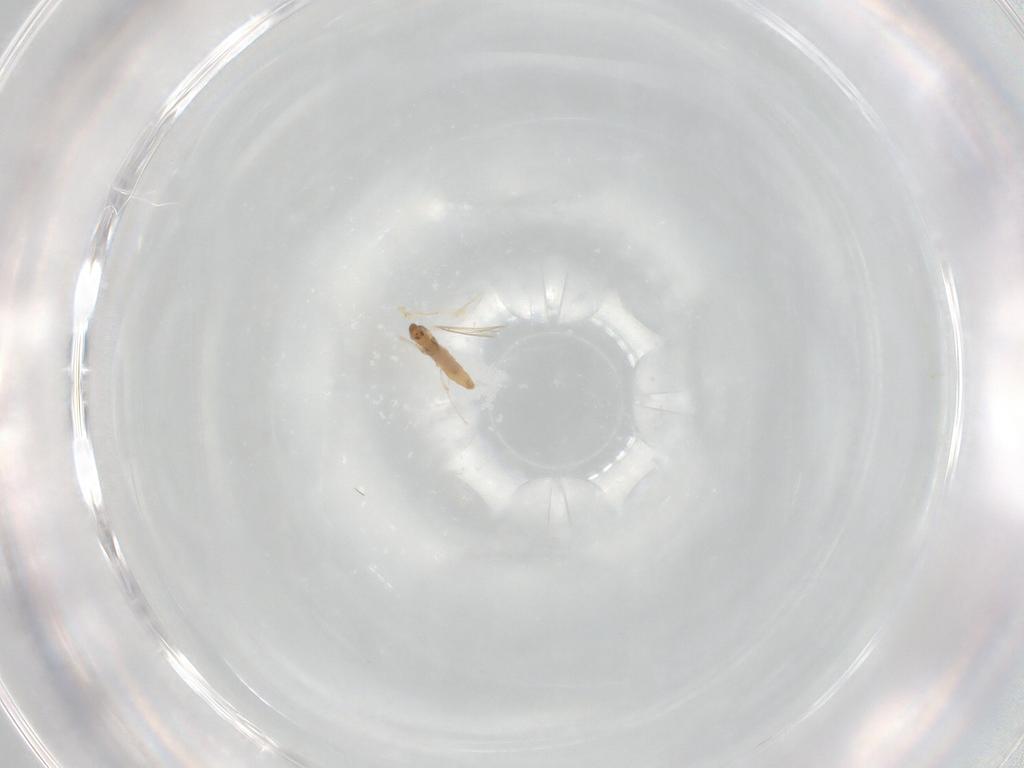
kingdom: Animalia
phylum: Arthropoda
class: Insecta
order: Diptera
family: Cecidomyiidae
